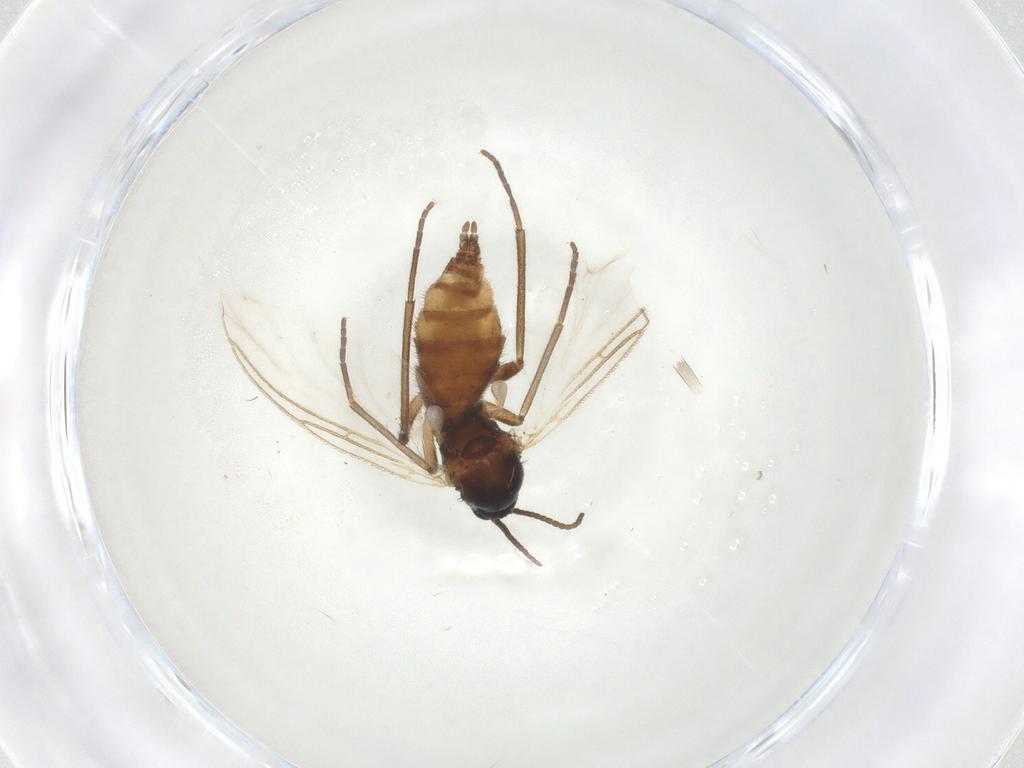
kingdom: Animalia
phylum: Arthropoda
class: Insecta
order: Diptera
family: Sciaridae
